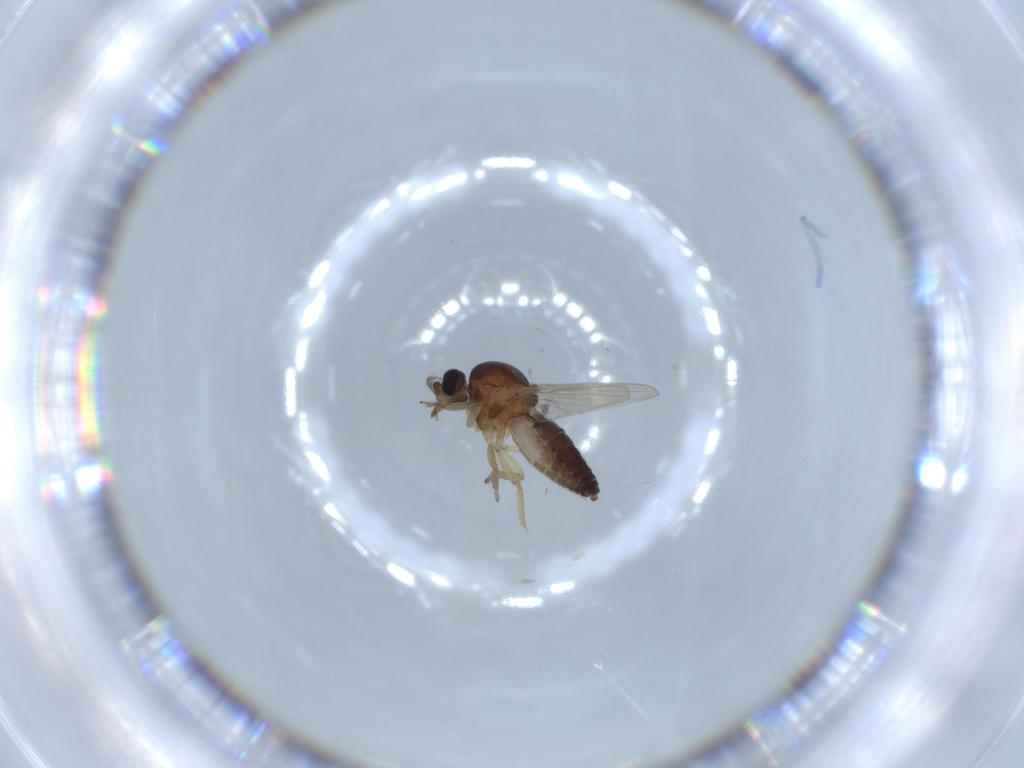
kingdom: Animalia
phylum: Arthropoda
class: Insecta
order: Diptera
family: Ceratopogonidae
